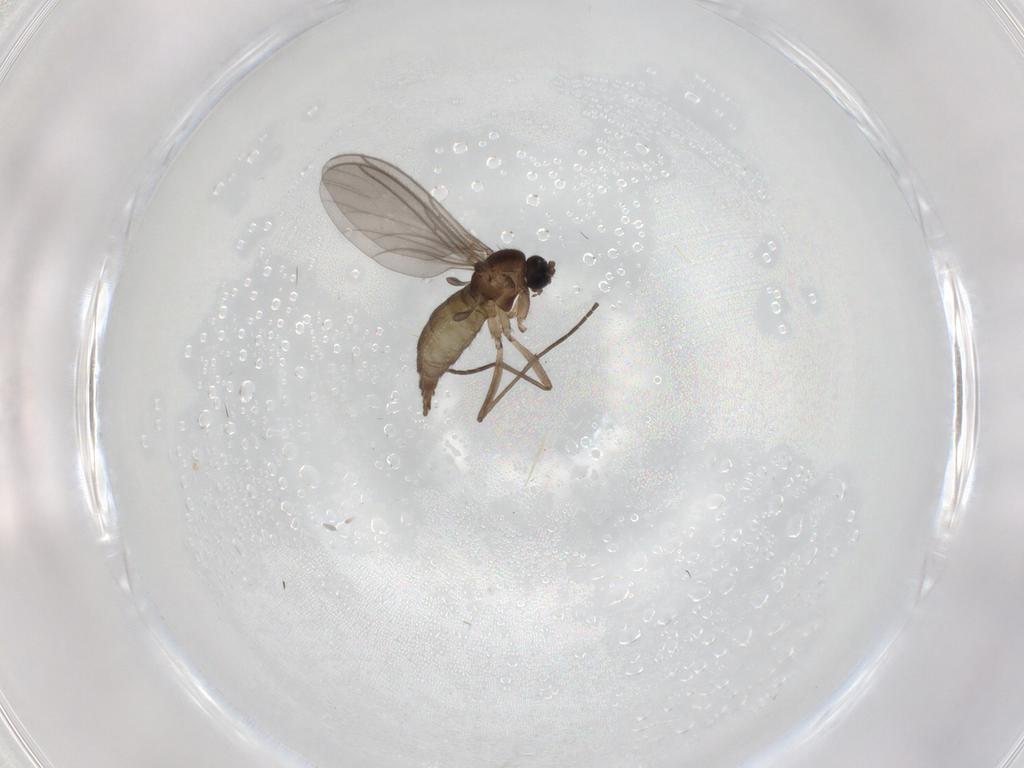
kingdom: Animalia
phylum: Arthropoda
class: Insecta
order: Diptera
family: Sciaridae
